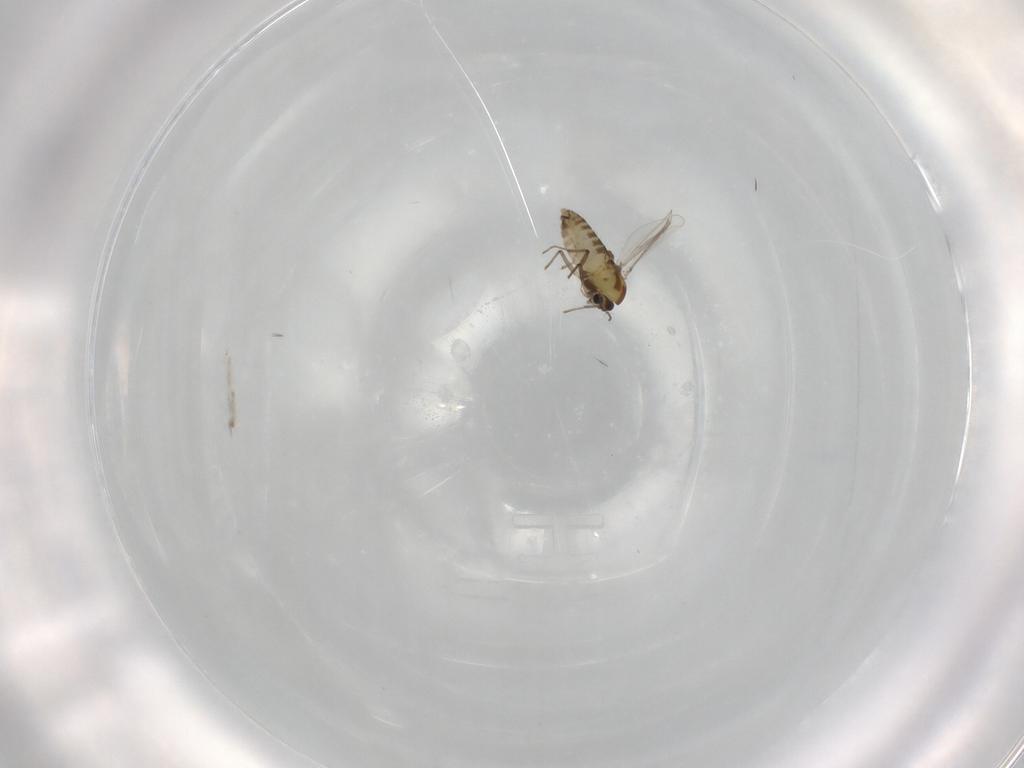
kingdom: Animalia
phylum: Arthropoda
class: Insecta
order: Diptera
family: Chironomidae
